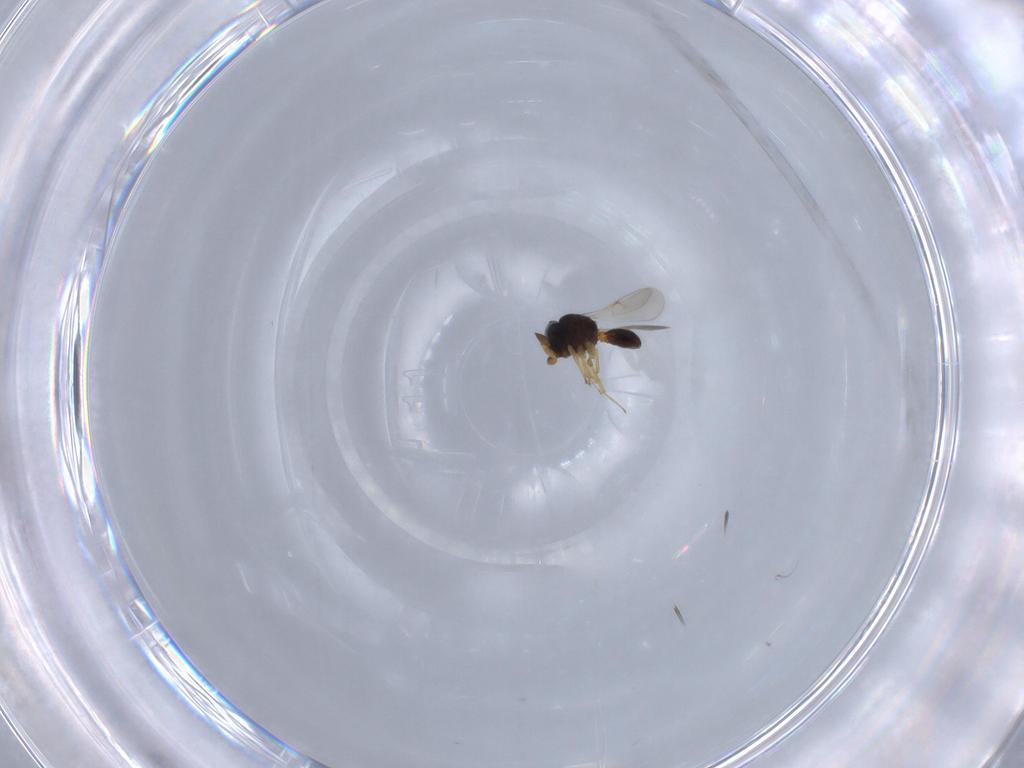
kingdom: Animalia
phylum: Arthropoda
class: Insecta
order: Hymenoptera
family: Scelionidae
